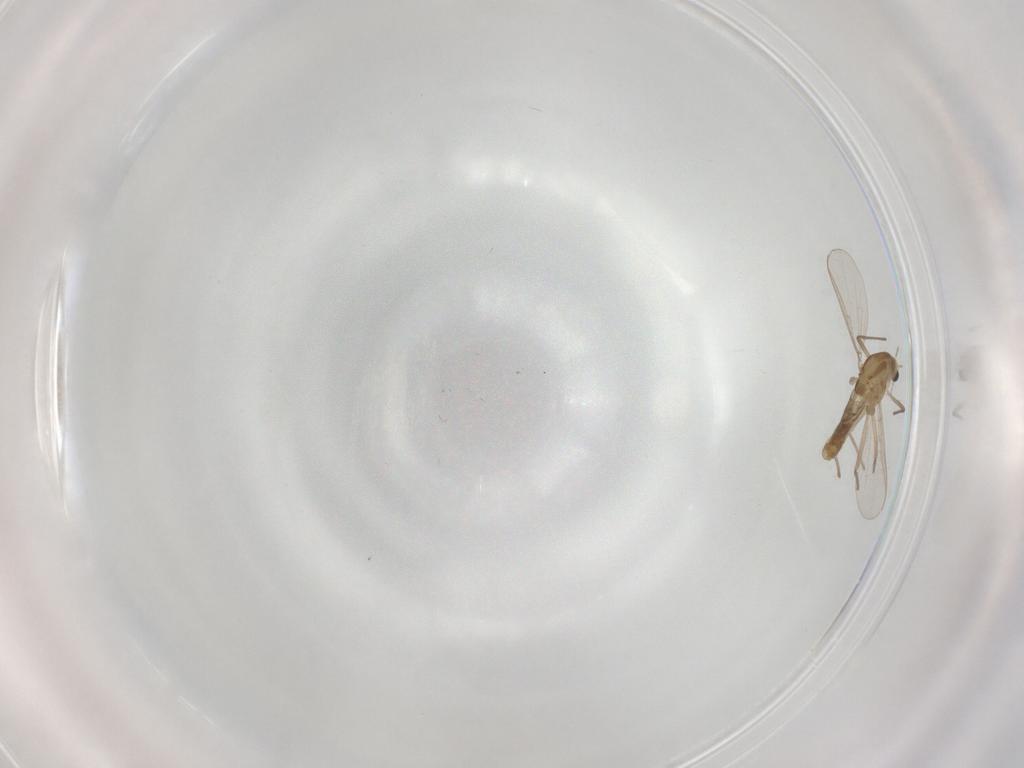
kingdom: Animalia
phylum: Arthropoda
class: Insecta
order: Diptera
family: Chironomidae
